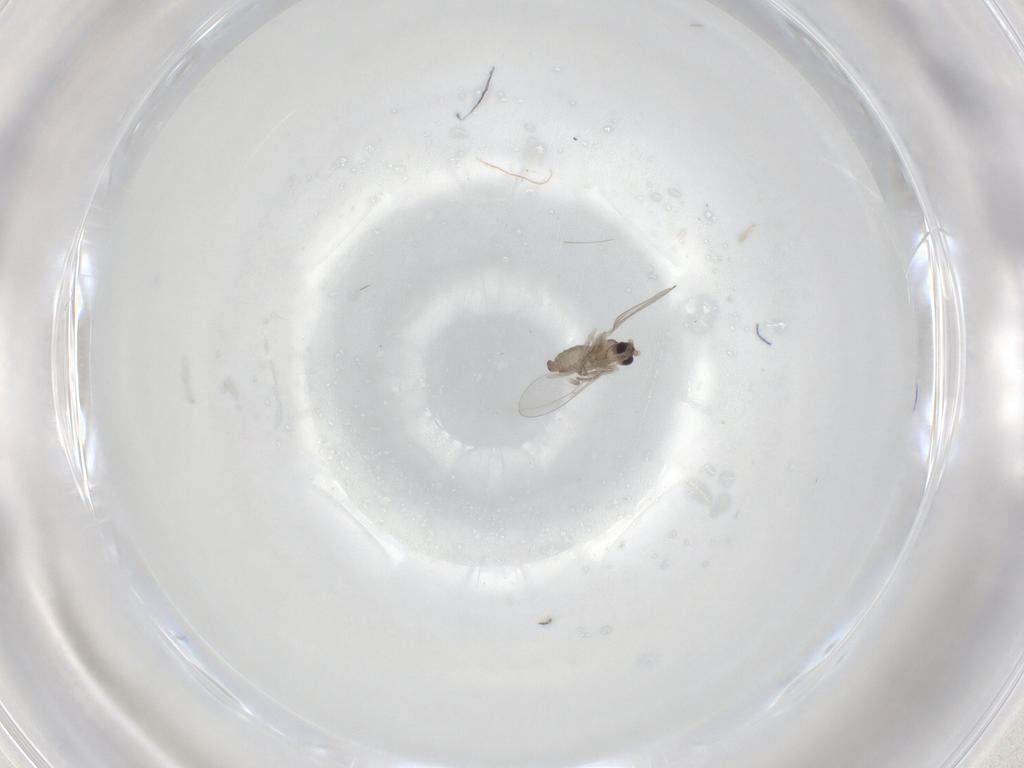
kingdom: Animalia
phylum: Arthropoda
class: Insecta
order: Diptera
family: Cecidomyiidae
